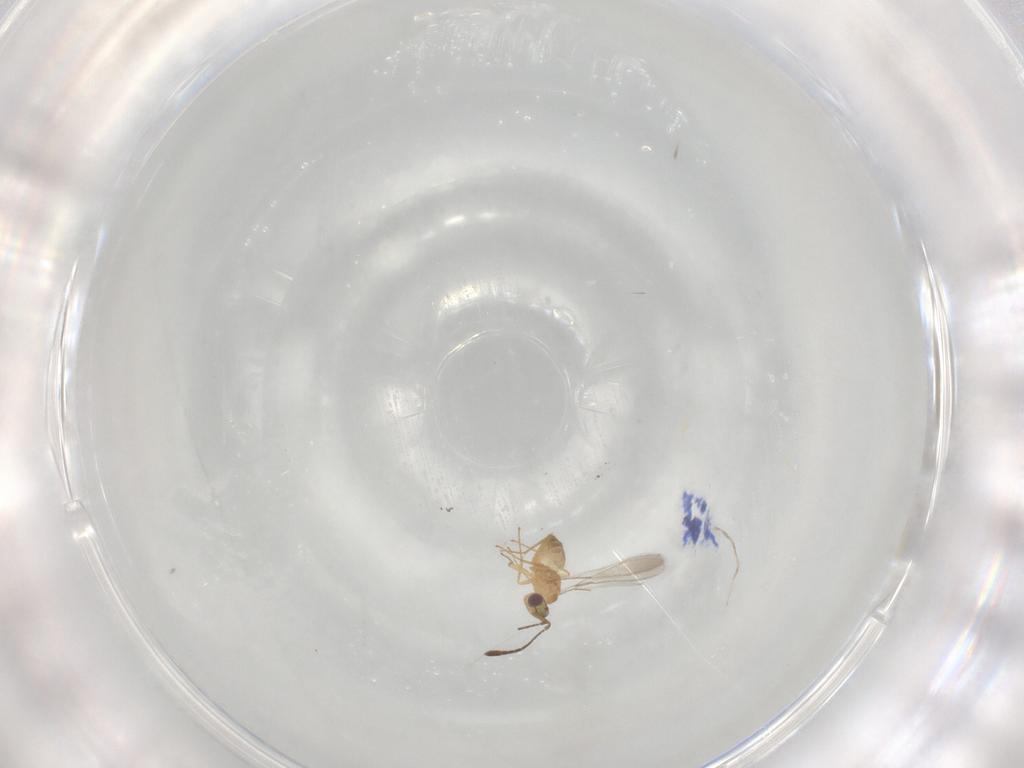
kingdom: Animalia
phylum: Arthropoda
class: Insecta
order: Hymenoptera
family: Mymaridae
